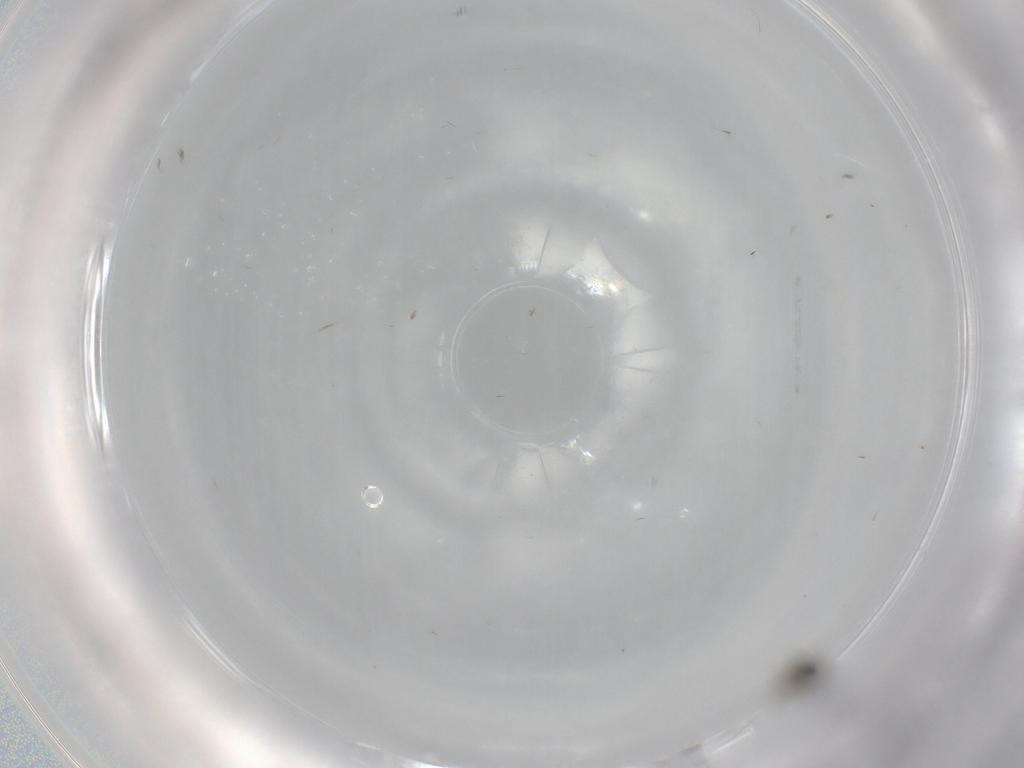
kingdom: Animalia
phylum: Arthropoda
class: Insecta
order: Diptera
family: Cecidomyiidae
